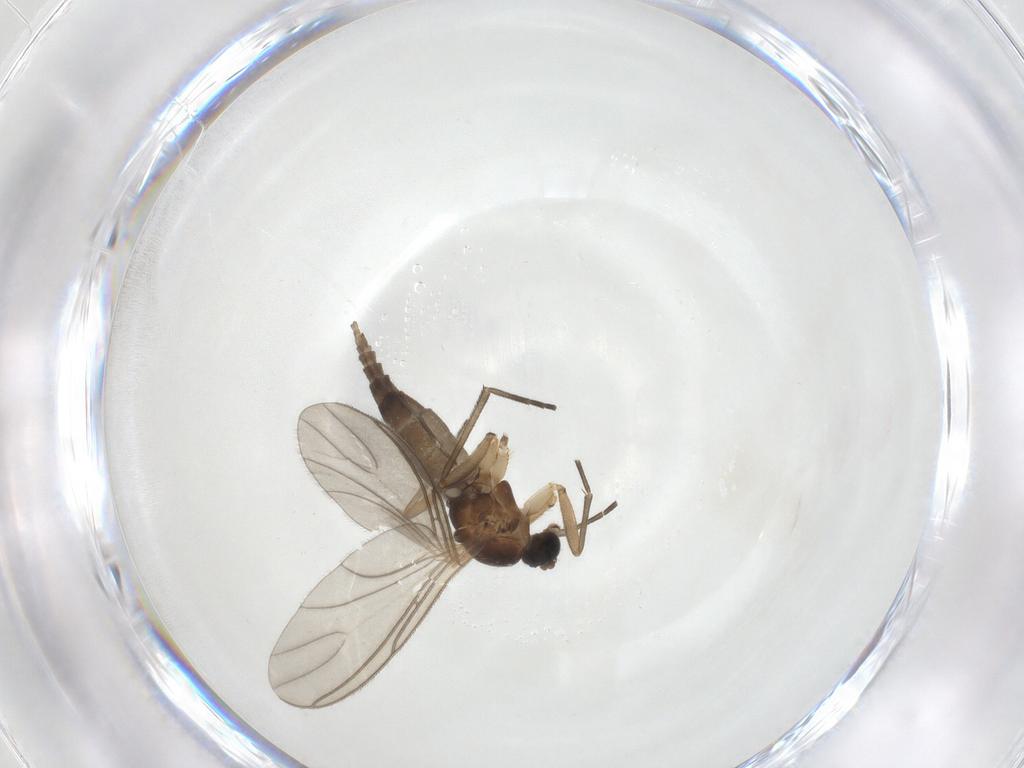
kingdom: Animalia
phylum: Arthropoda
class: Insecta
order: Diptera
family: Sciaridae
